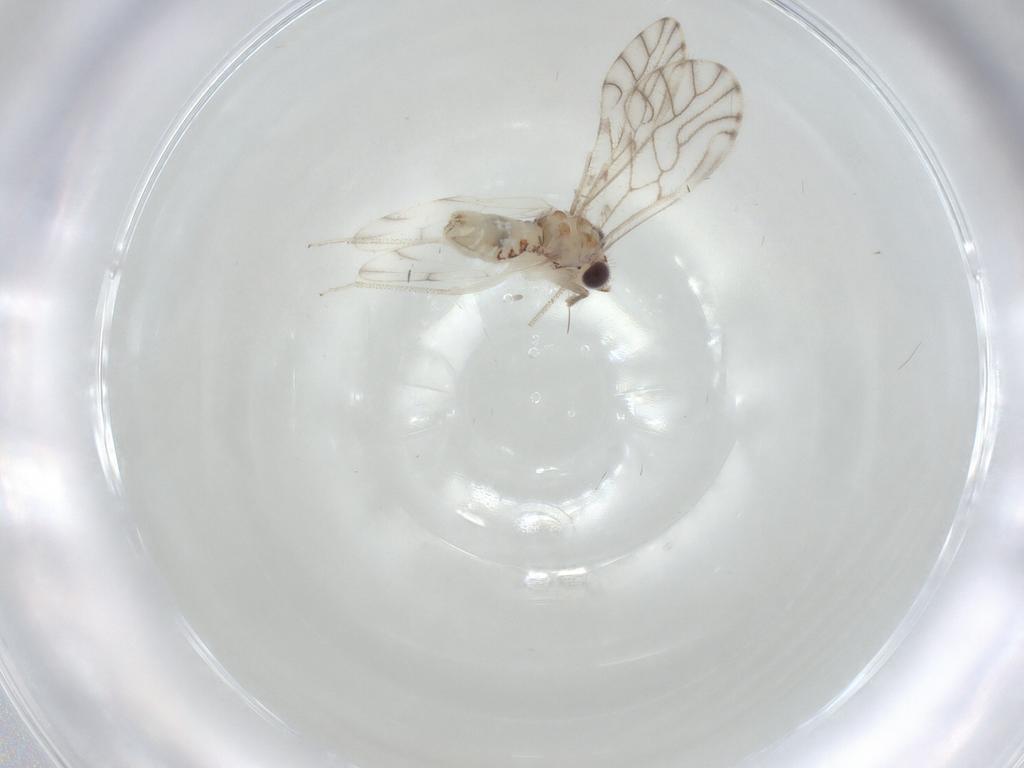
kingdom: Animalia
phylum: Arthropoda
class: Insecta
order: Psocodea
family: Philotarsidae
